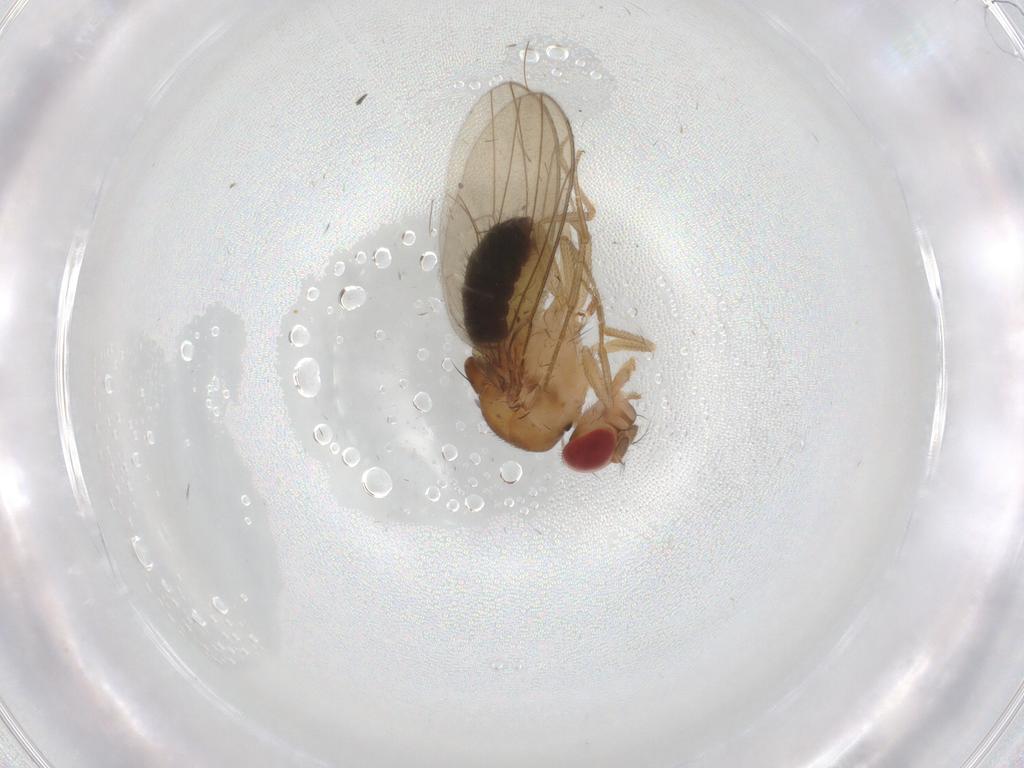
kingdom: Animalia
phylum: Arthropoda
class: Insecta
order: Diptera
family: Drosophilidae
